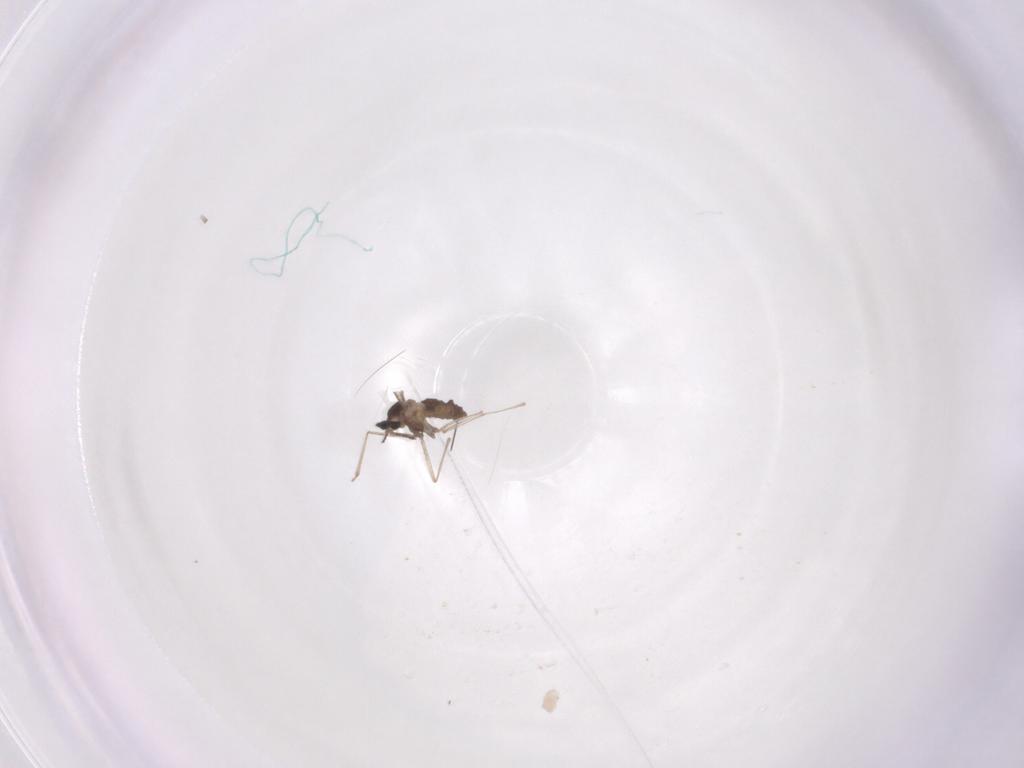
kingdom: Animalia
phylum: Arthropoda
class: Insecta
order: Diptera
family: Cecidomyiidae
